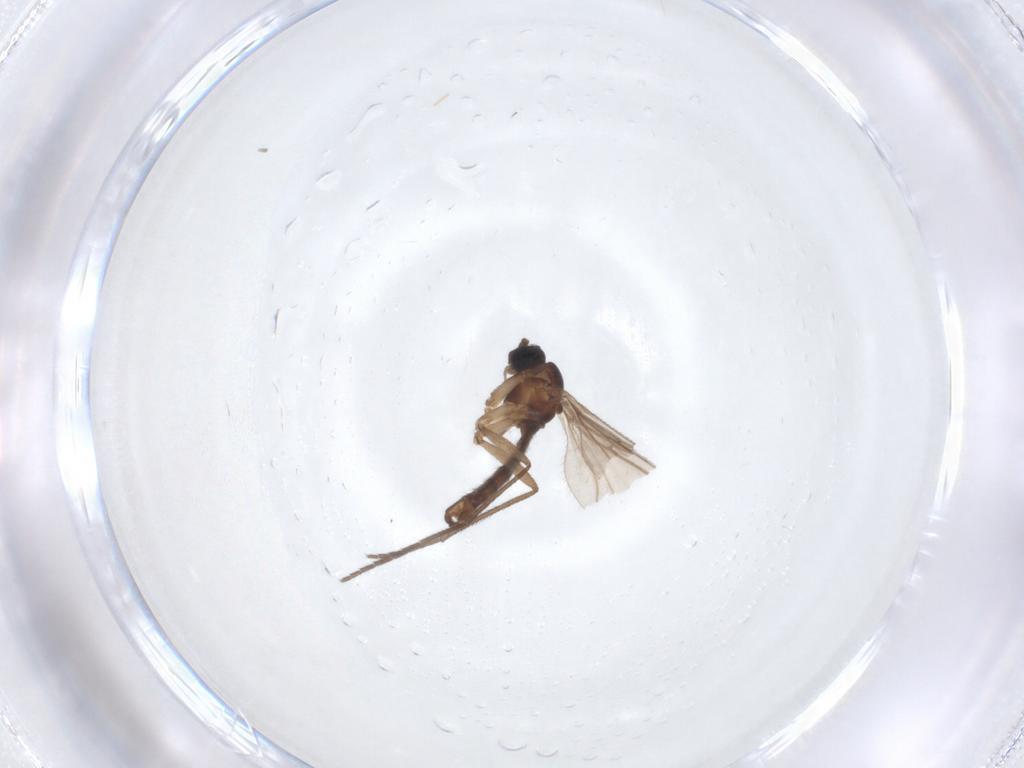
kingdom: Animalia
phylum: Arthropoda
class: Insecta
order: Diptera
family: Sciaridae
